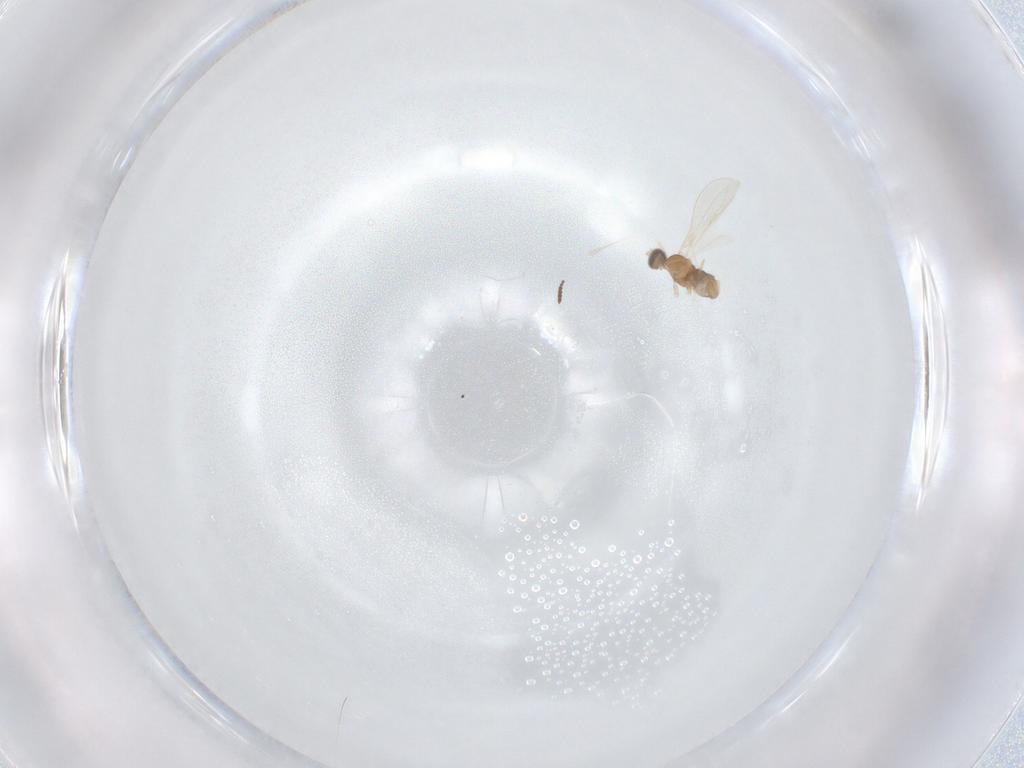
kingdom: Animalia
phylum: Arthropoda
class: Insecta
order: Diptera
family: Cecidomyiidae
